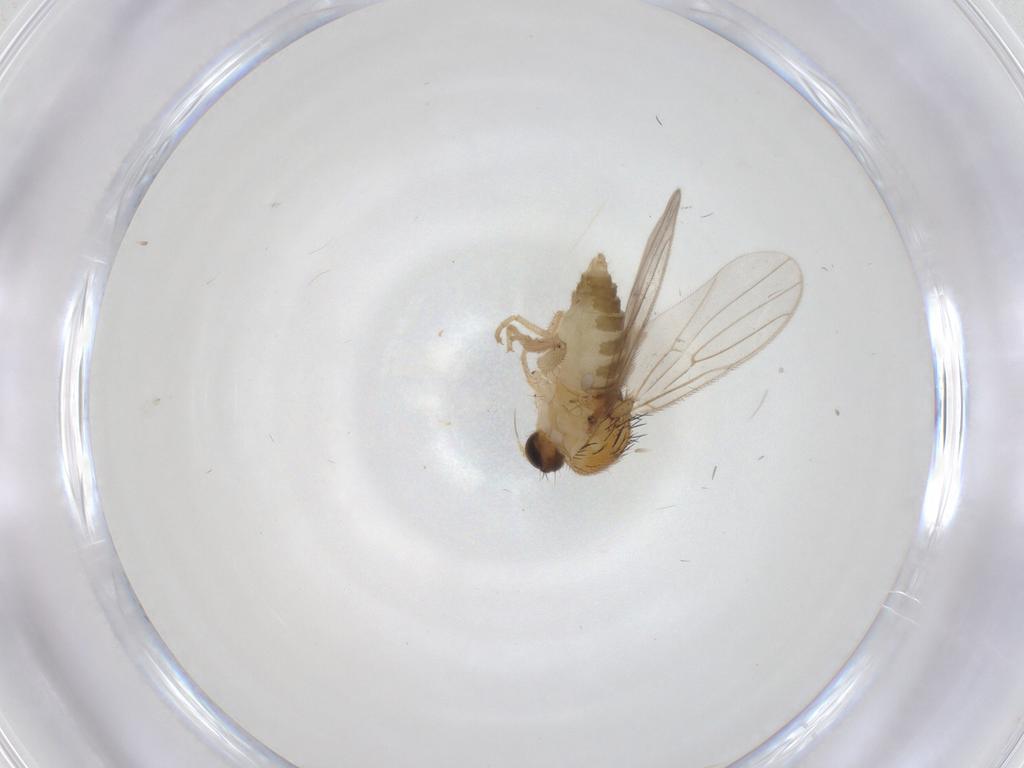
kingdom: Animalia
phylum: Arthropoda
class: Insecta
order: Diptera
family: Hybotidae
